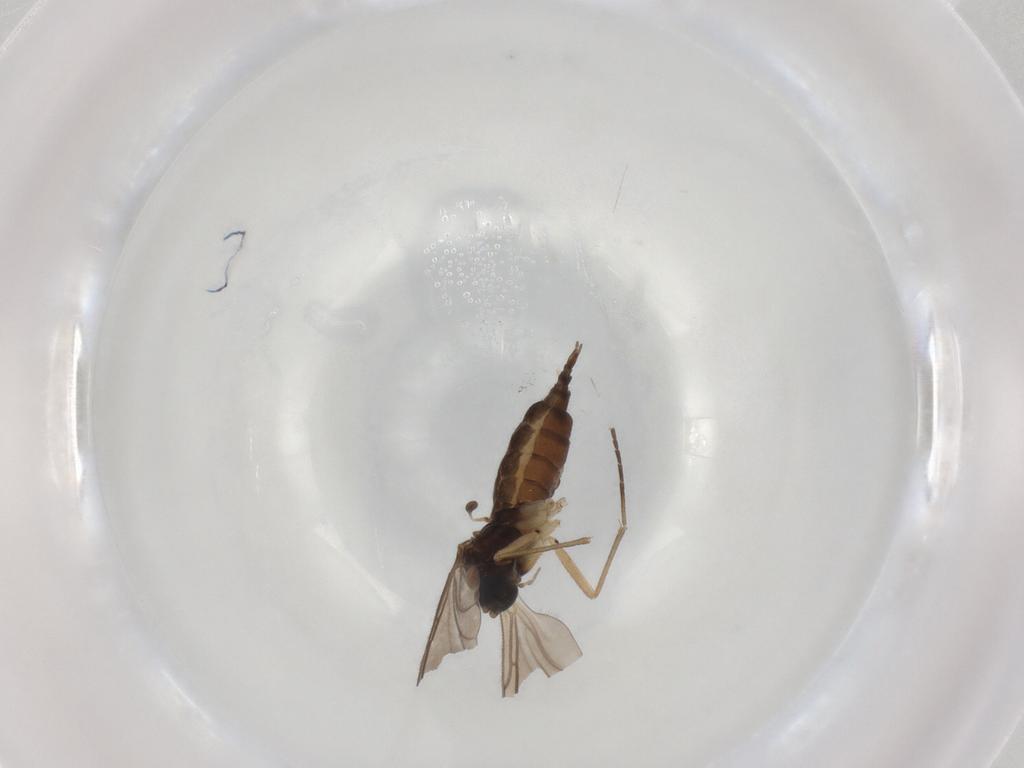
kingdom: Animalia
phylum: Arthropoda
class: Insecta
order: Diptera
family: Sciaridae
